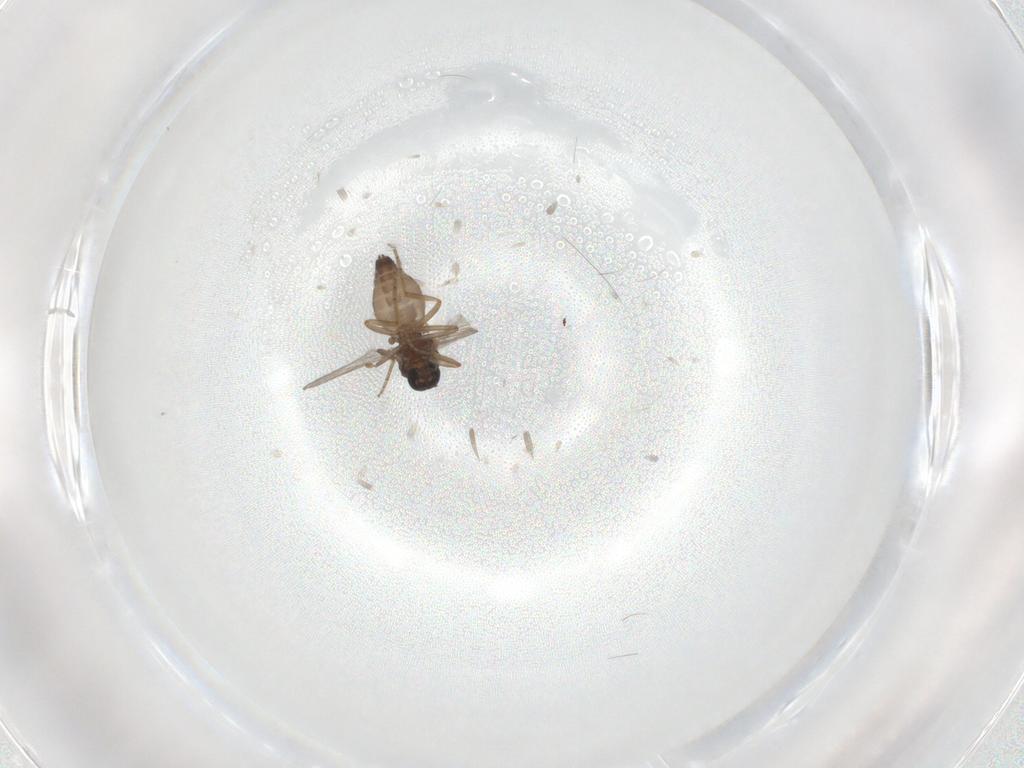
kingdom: Animalia
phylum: Arthropoda
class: Insecta
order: Diptera
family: Ceratopogonidae
